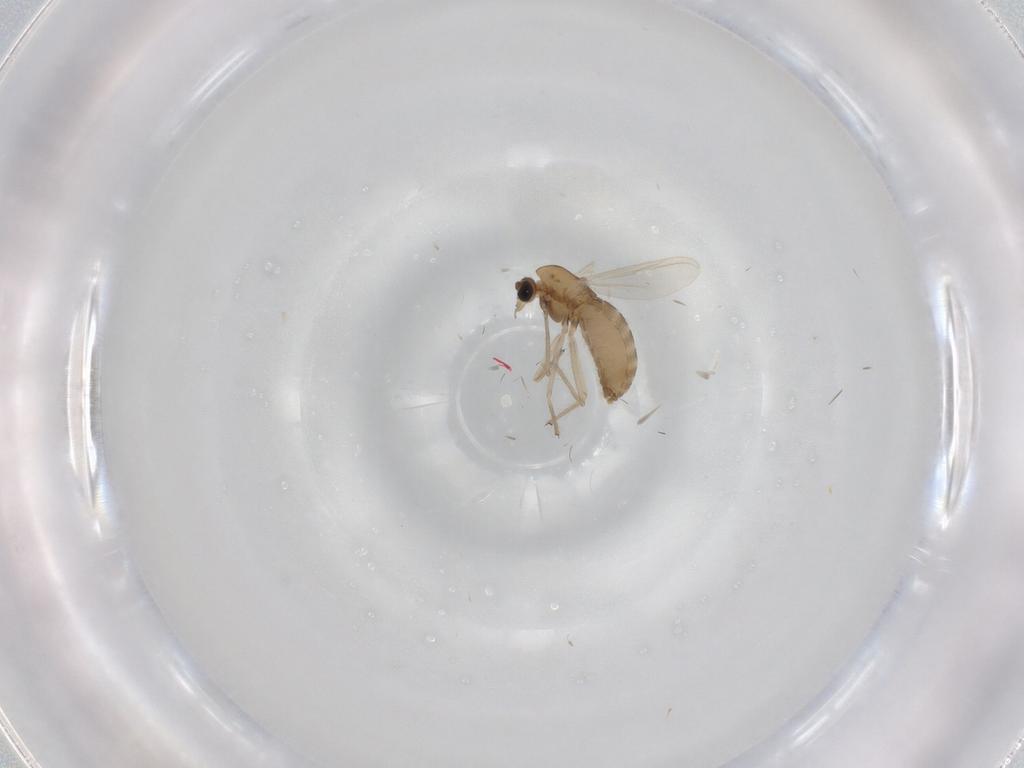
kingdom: Animalia
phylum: Arthropoda
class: Insecta
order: Diptera
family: Chironomidae
